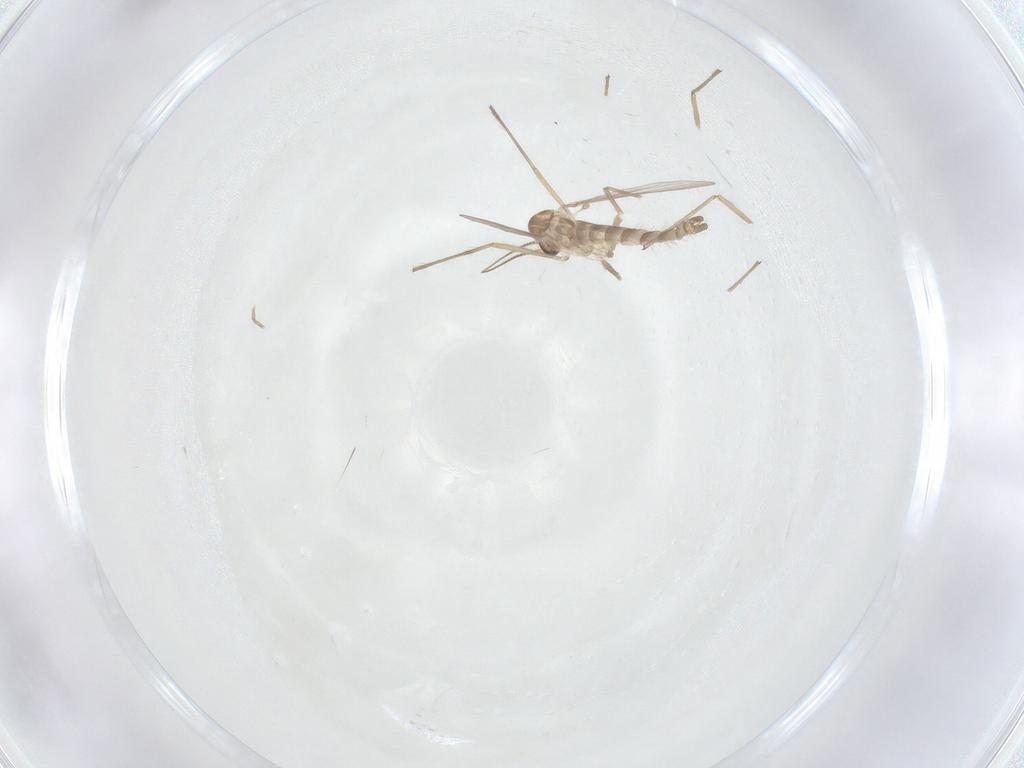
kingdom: Animalia
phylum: Arthropoda
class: Insecta
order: Diptera
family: Chironomidae
